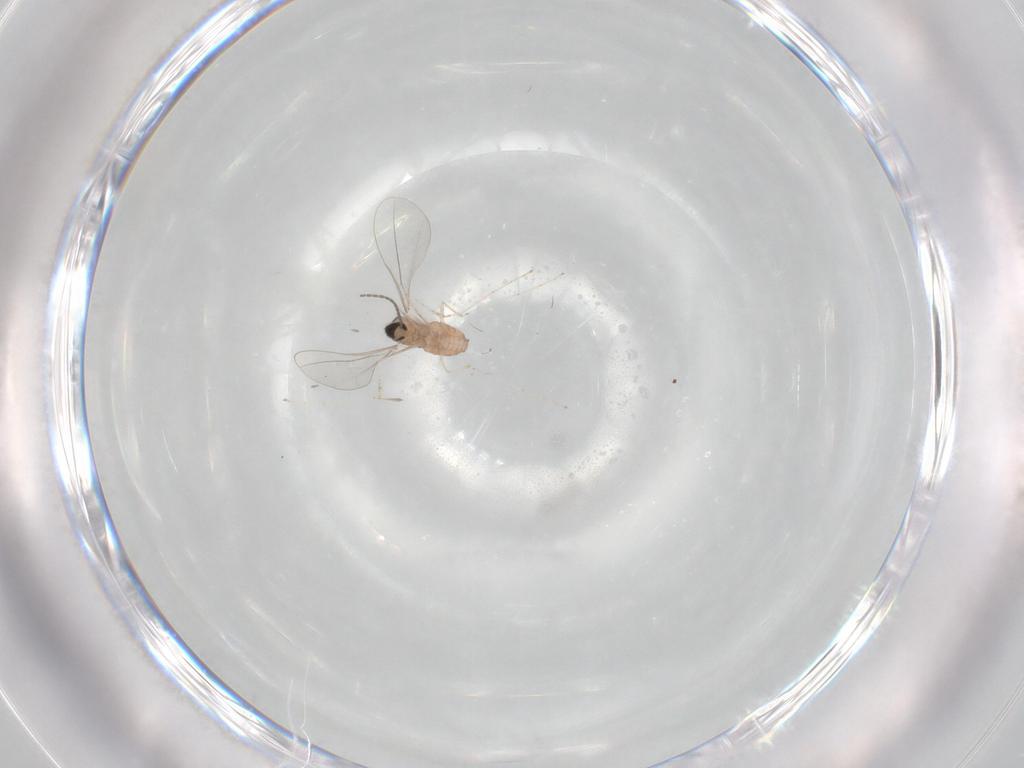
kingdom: Animalia
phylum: Arthropoda
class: Insecta
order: Diptera
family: Cecidomyiidae
